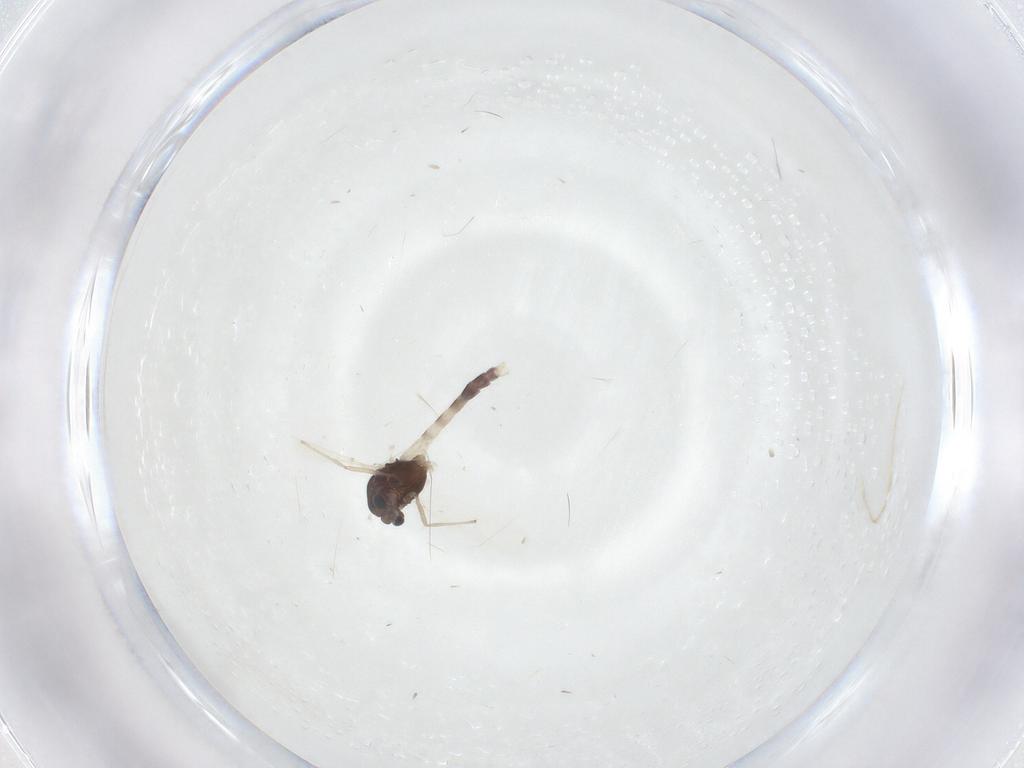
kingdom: Animalia
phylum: Arthropoda
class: Insecta
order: Diptera
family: Chironomidae
